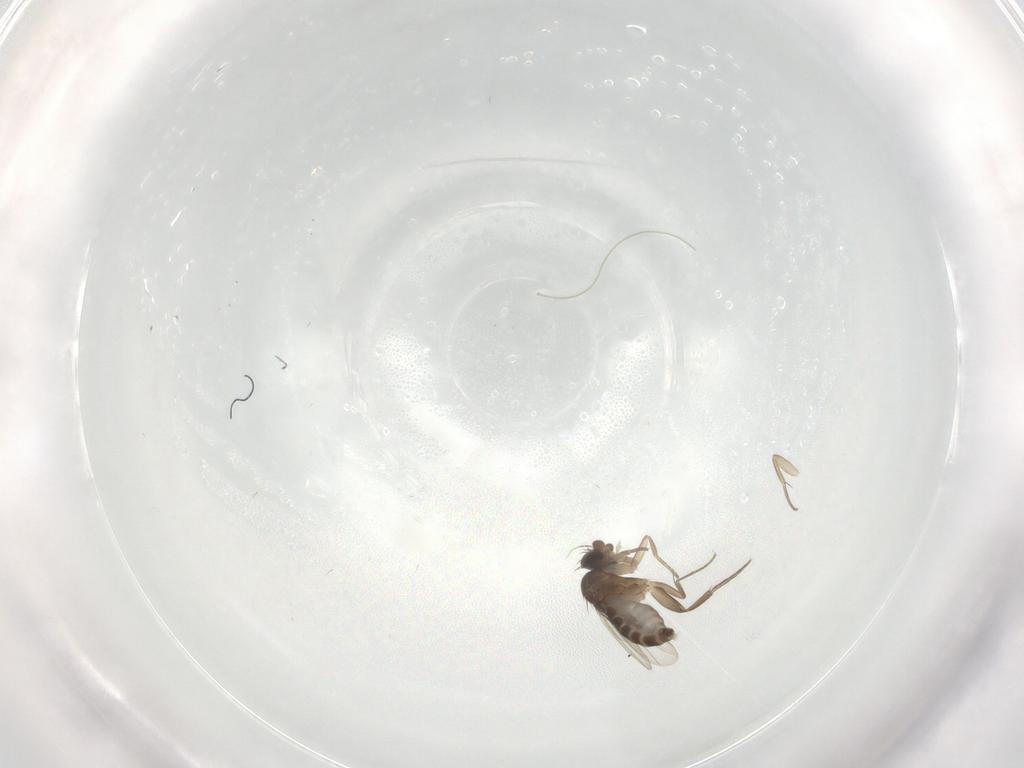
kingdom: Animalia
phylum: Arthropoda
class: Insecta
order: Diptera
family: Phoridae
